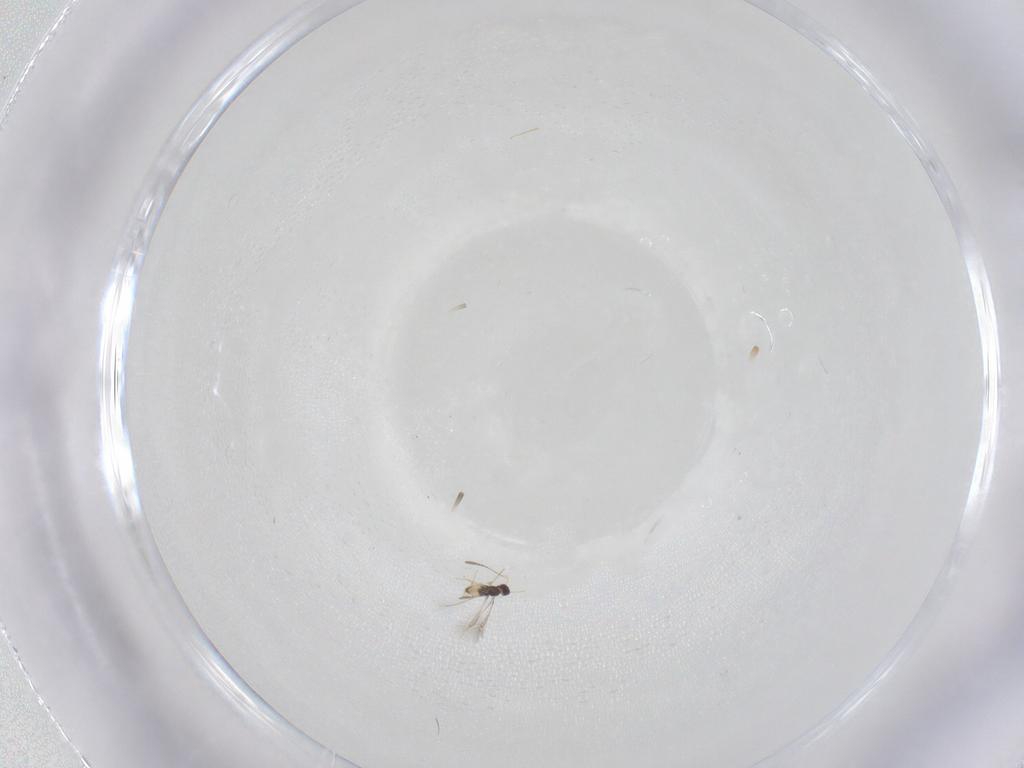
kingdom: Animalia
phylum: Arthropoda
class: Insecta
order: Hymenoptera
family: Mymaridae
